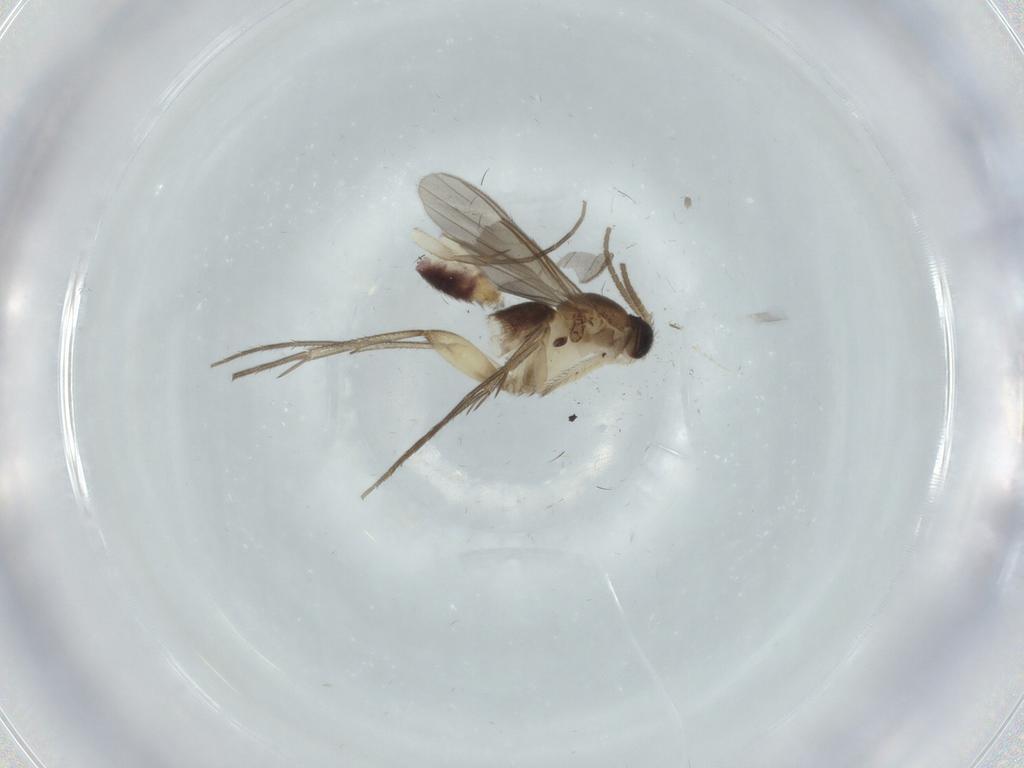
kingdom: Animalia
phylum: Arthropoda
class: Insecta
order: Diptera
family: Mycetophilidae
